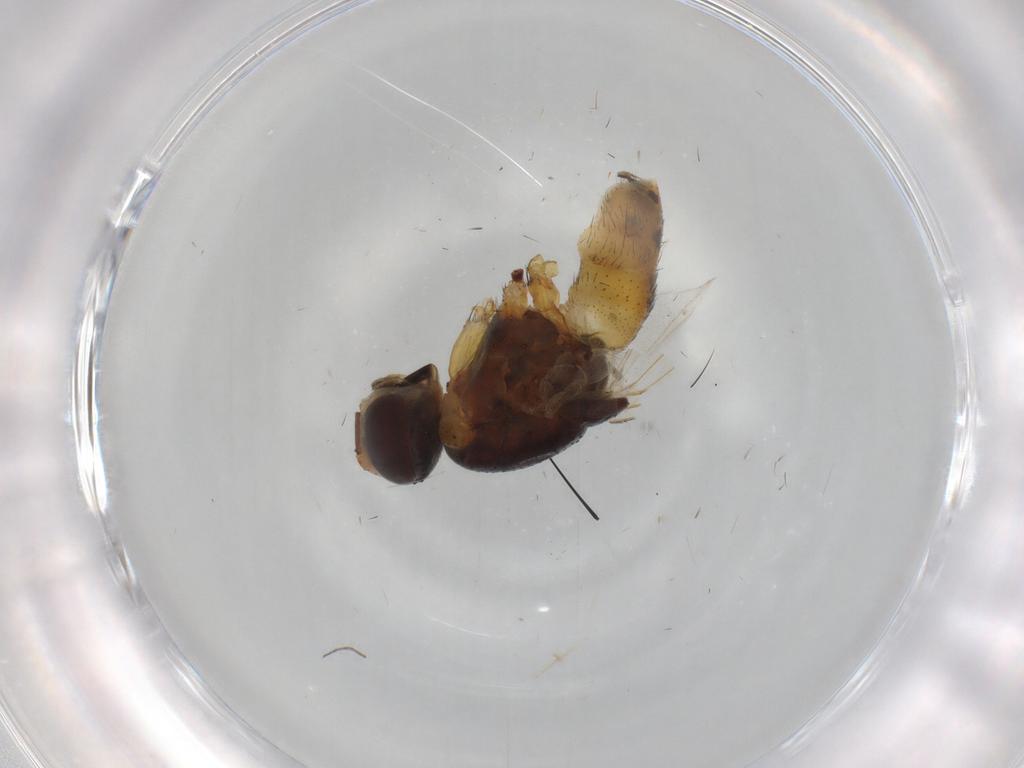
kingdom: Animalia
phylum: Arthropoda
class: Insecta
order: Diptera
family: Muscidae
